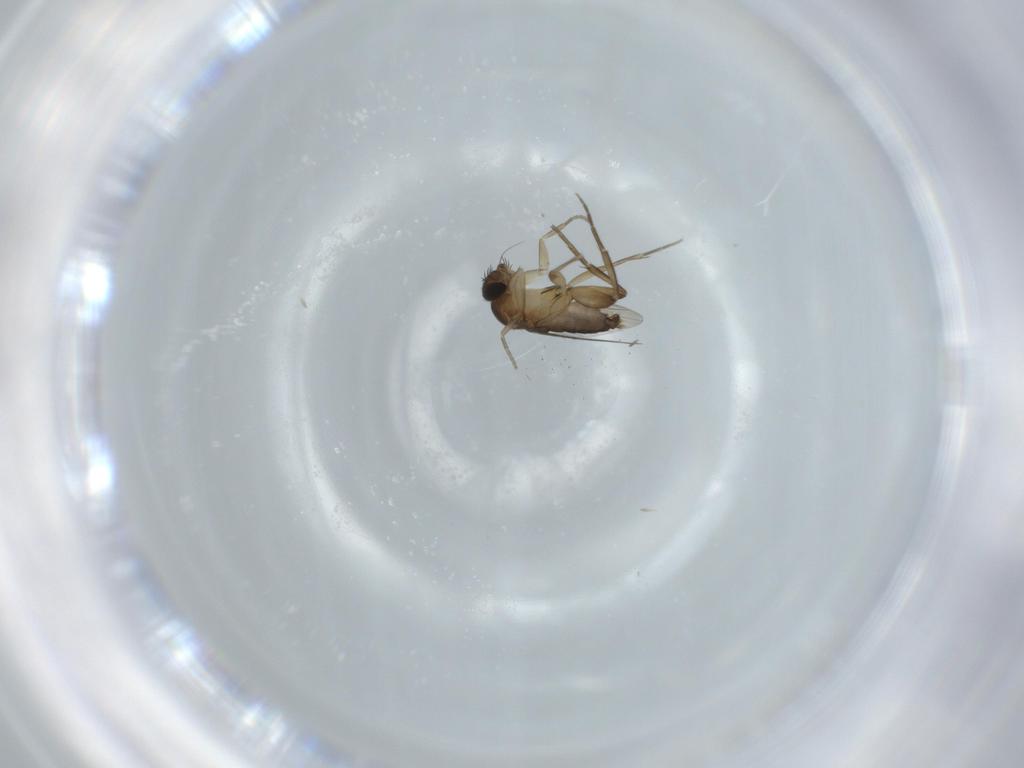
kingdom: Animalia
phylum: Arthropoda
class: Insecta
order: Diptera
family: Phoridae
